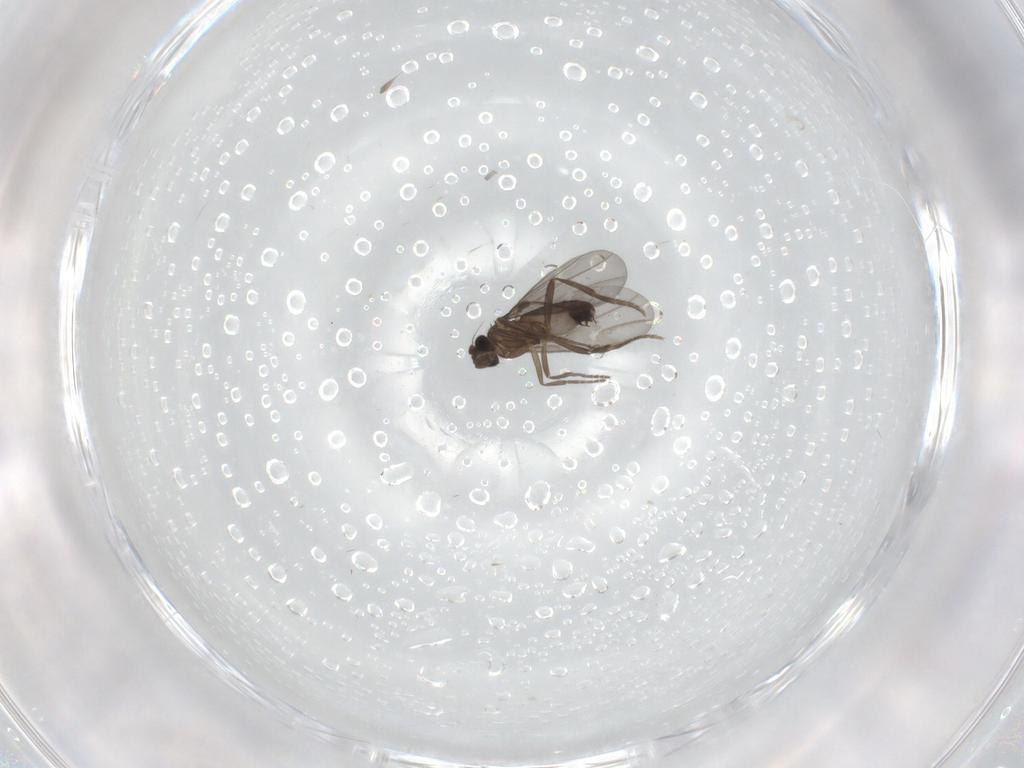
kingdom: Animalia
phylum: Arthropoda
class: Insecta
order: Diptera
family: Phoridae
